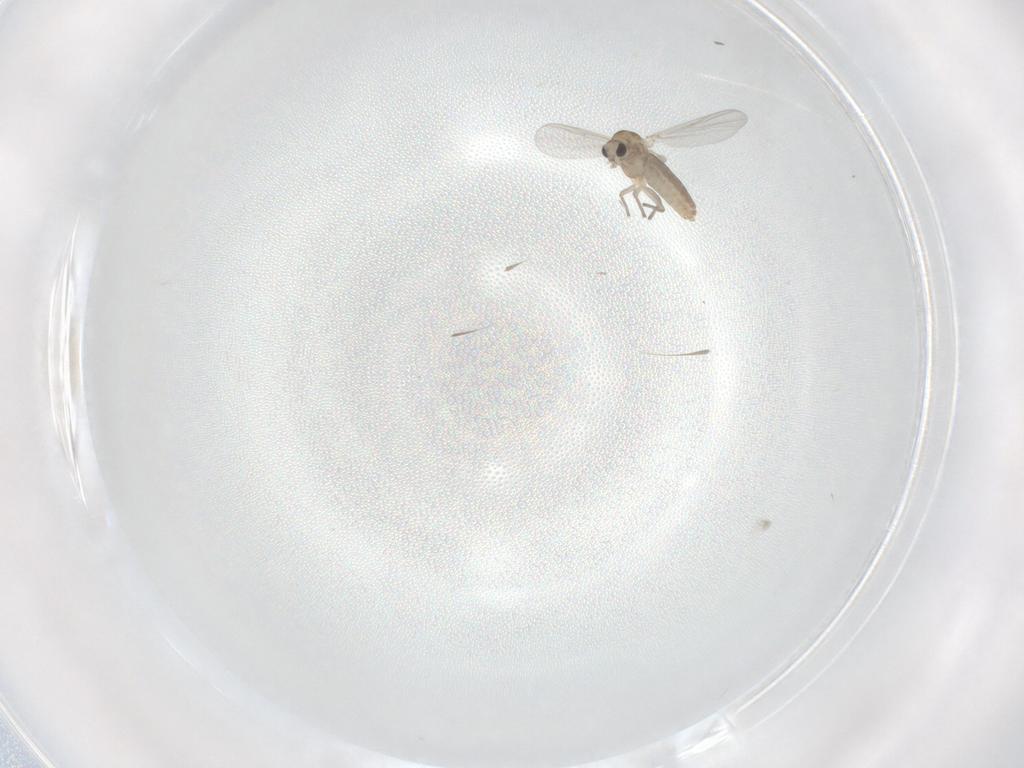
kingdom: Animalia
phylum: Arthropoda
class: Insecta
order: Diptera
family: Chironomidae
